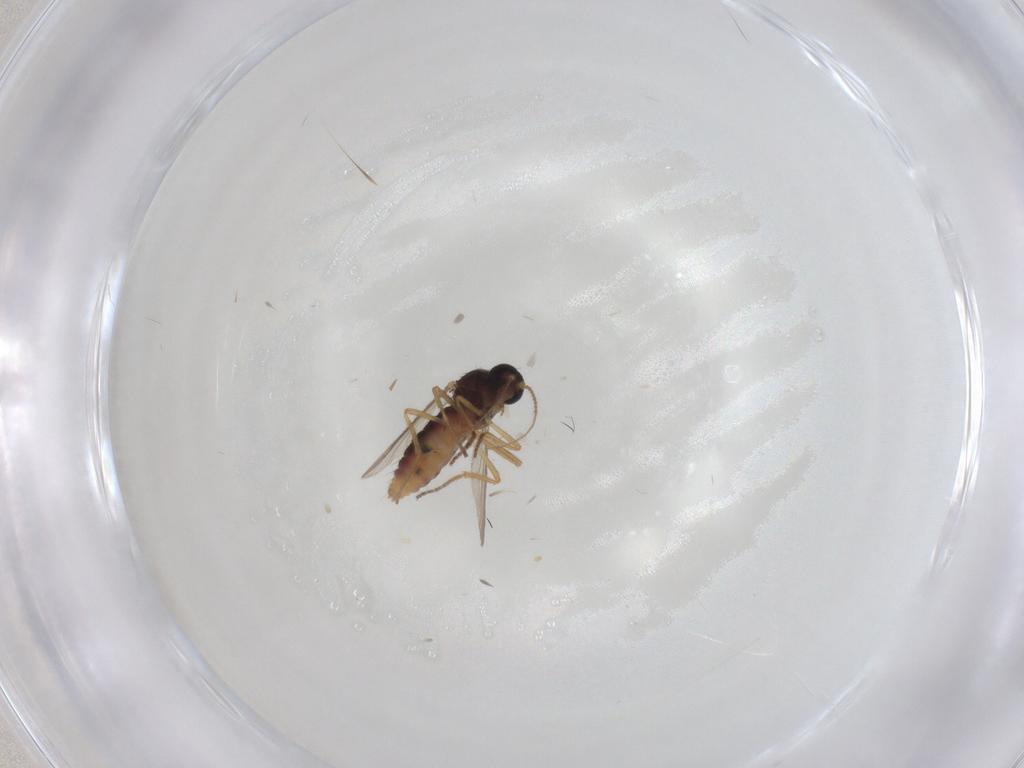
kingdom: Animalia
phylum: Arthropoda
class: Insecta
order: Diptera
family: Ceratopogonidae
